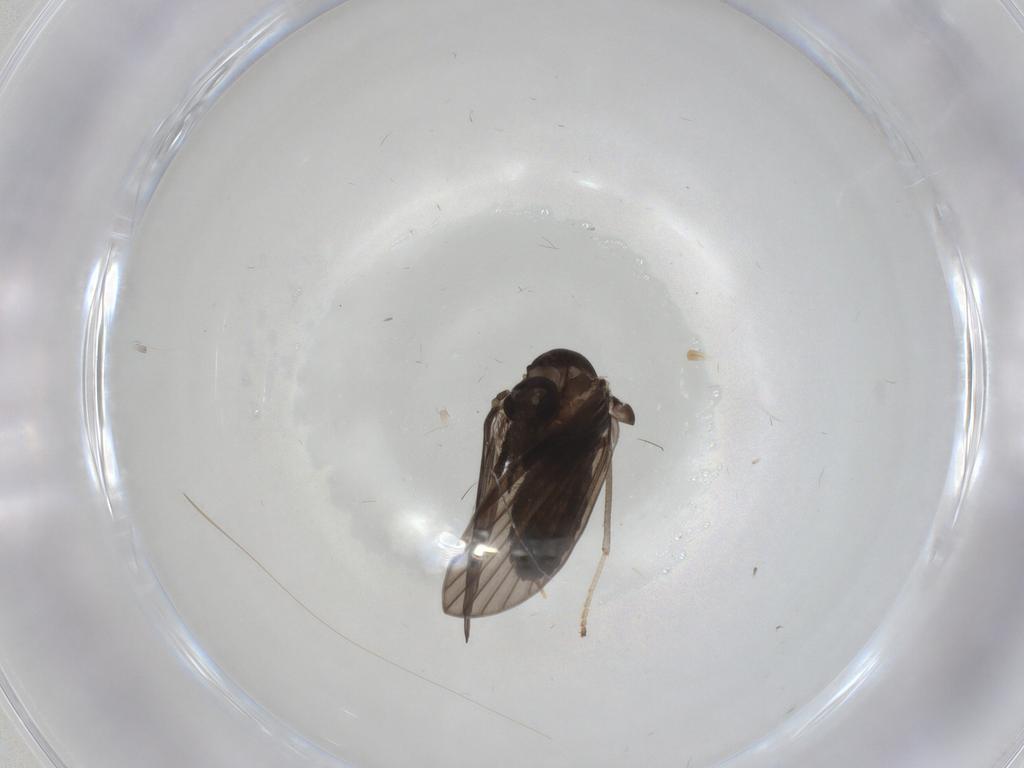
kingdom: Animalia
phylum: Arthropoda
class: Insecta
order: Diptera
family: Psychodidae
